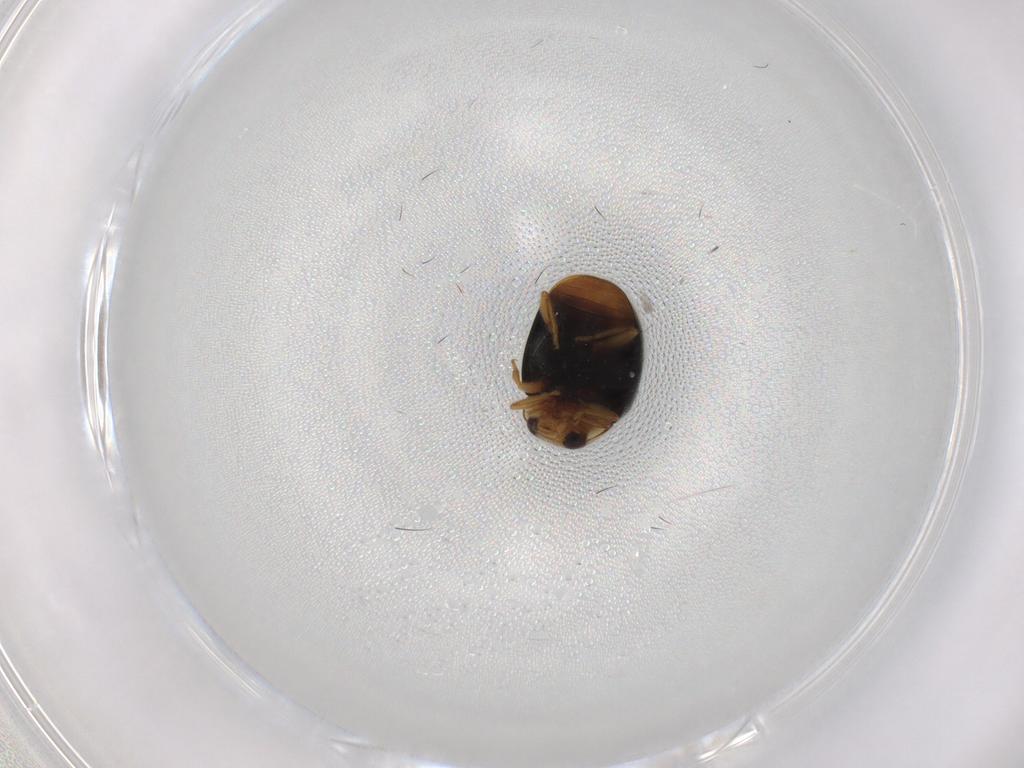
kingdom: Animalia
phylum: Arthropoda
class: Insecta
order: Coleoptera
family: Coccinellidae
